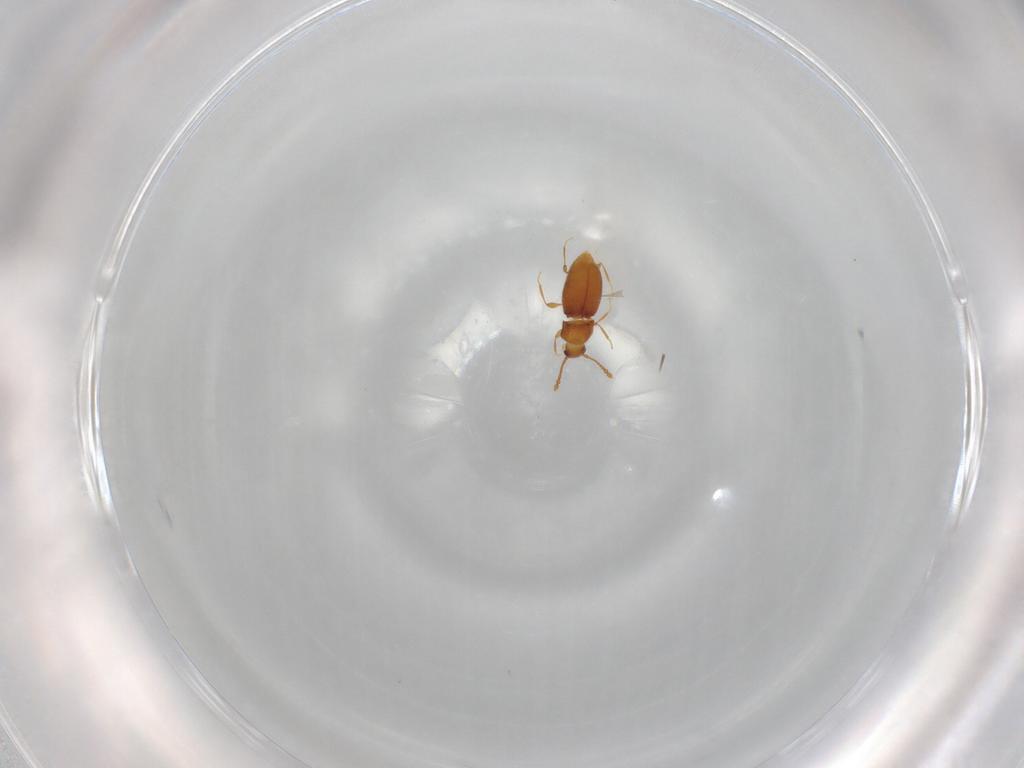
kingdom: Animalia
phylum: Arthropoda
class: Insecta
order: Coleoptera
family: Staphylinidae
